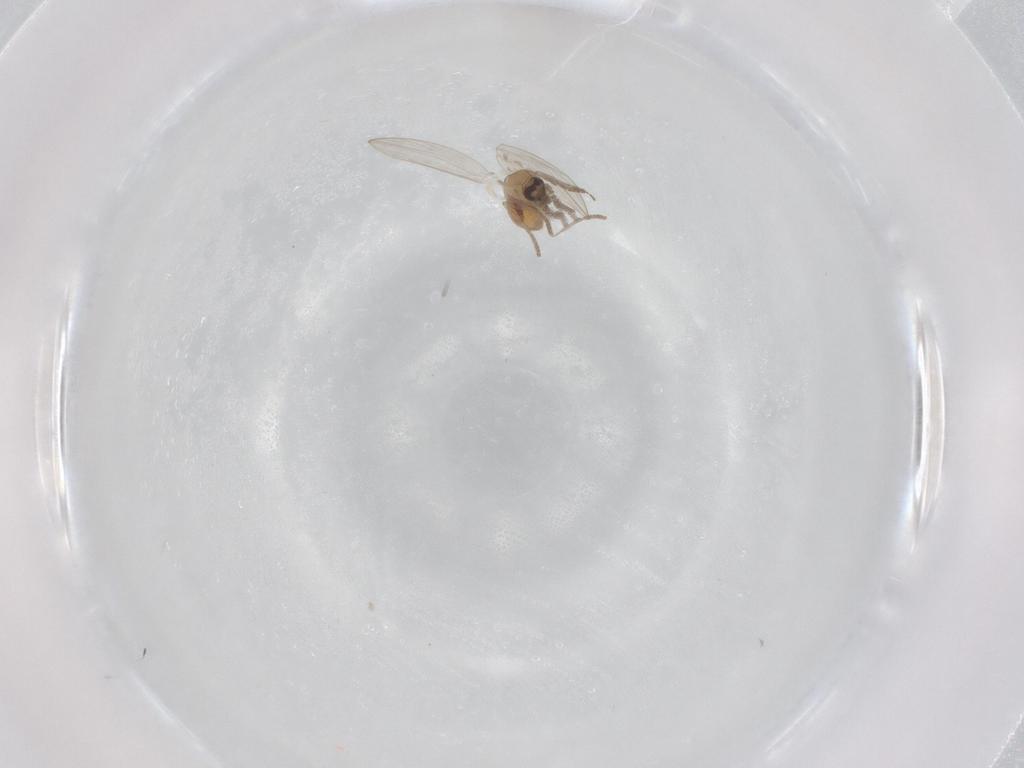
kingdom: Animalia
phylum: Arthropoda
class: Insecta
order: Diptera
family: Psychodidae
